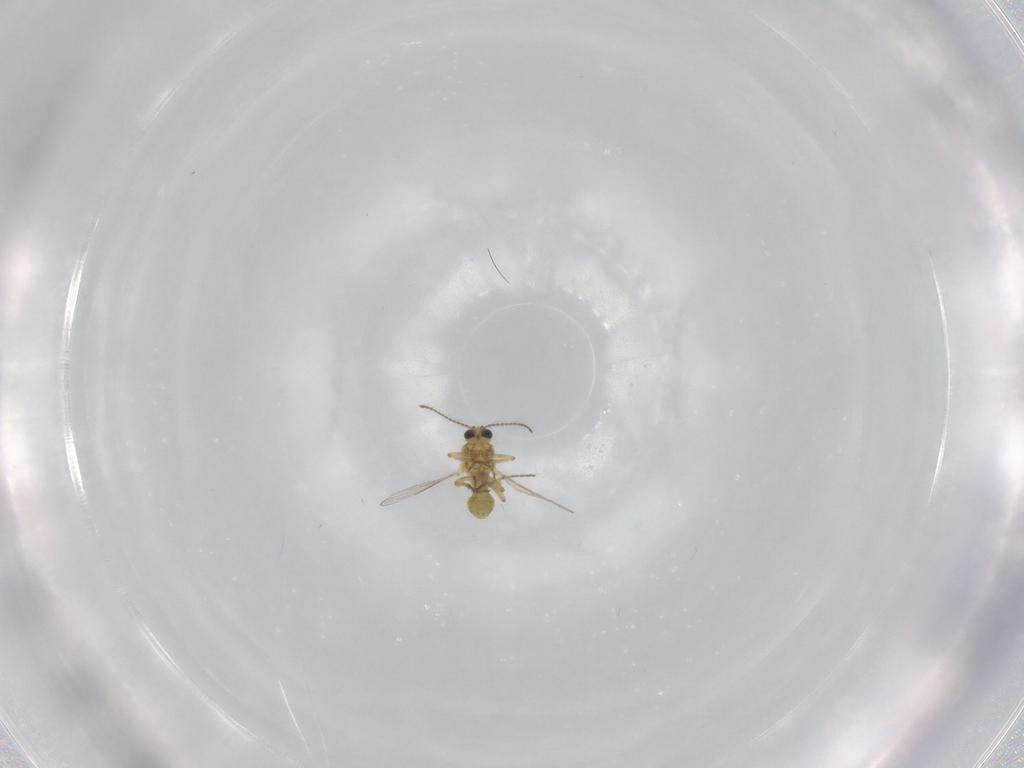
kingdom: Animalia
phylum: Arthropoda
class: Insecta
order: Diptera
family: Ceratopogonidae
